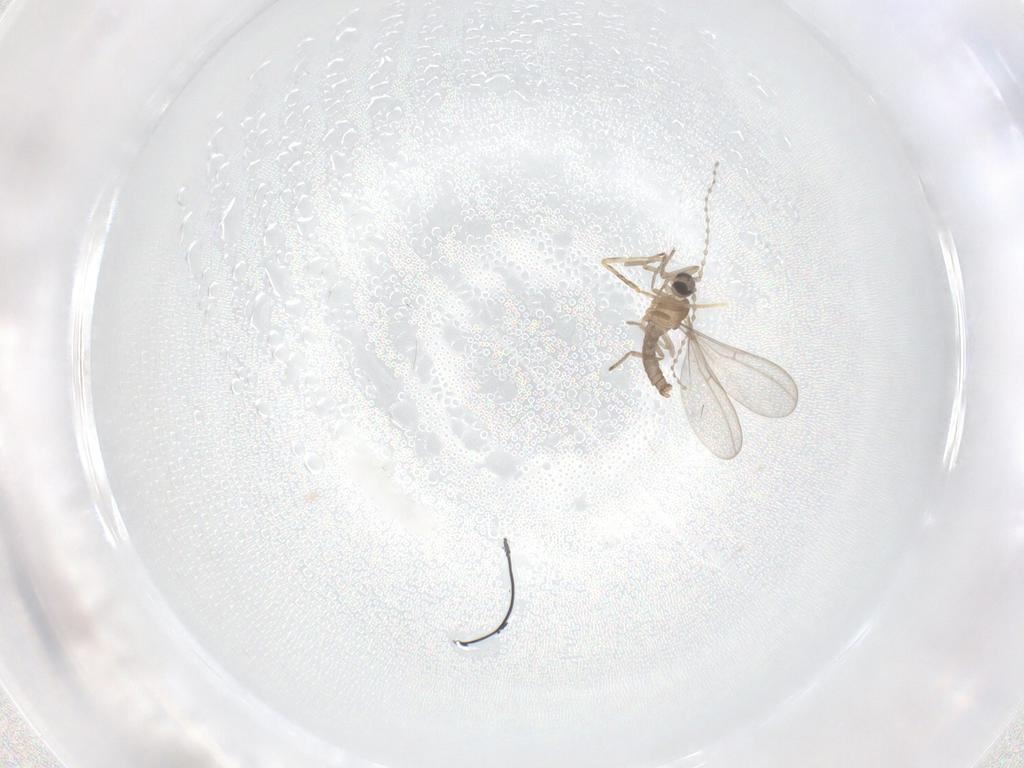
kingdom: Animalia
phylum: Arthropoda
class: Insecta
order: Diptera
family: Psychodidae
